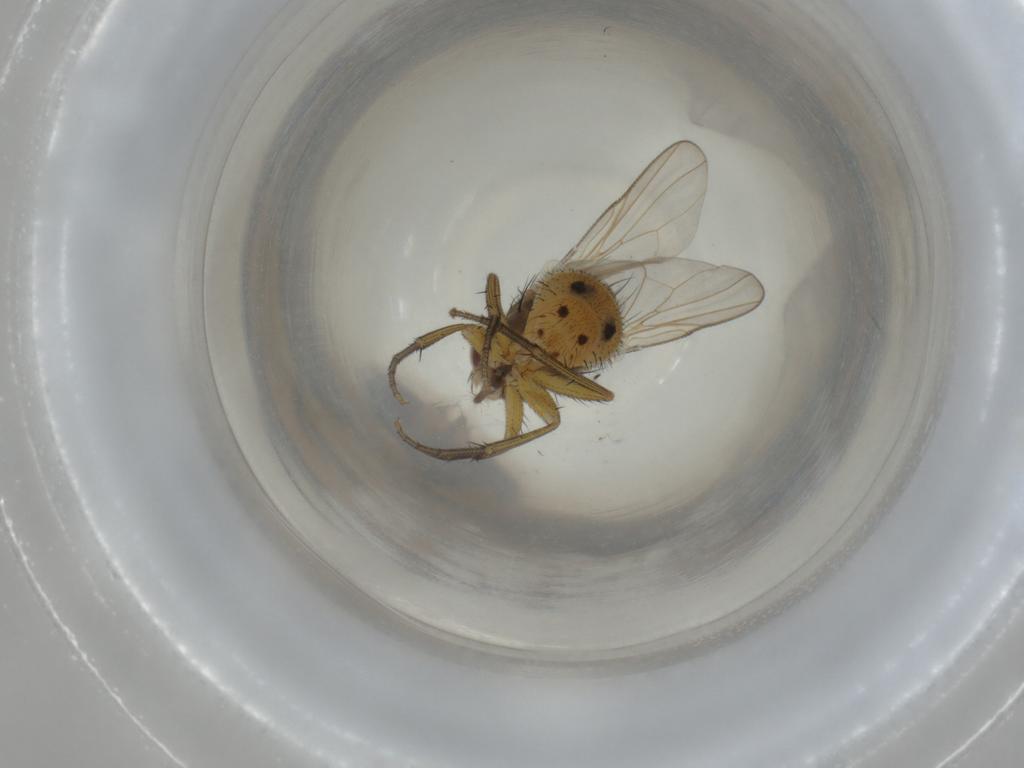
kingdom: Animalia
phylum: Arthropoda
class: Insecta
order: Diptera
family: Muscidae
